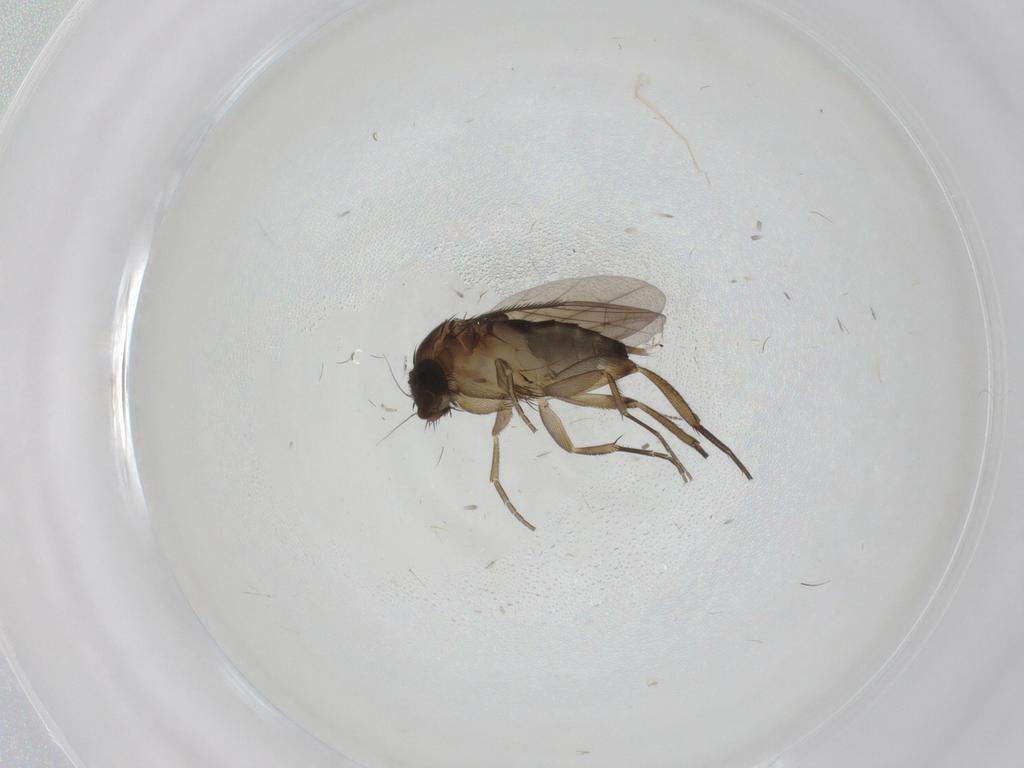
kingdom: Animalia
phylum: Arthropoda
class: Insecta
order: Diptera
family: Phoridae
